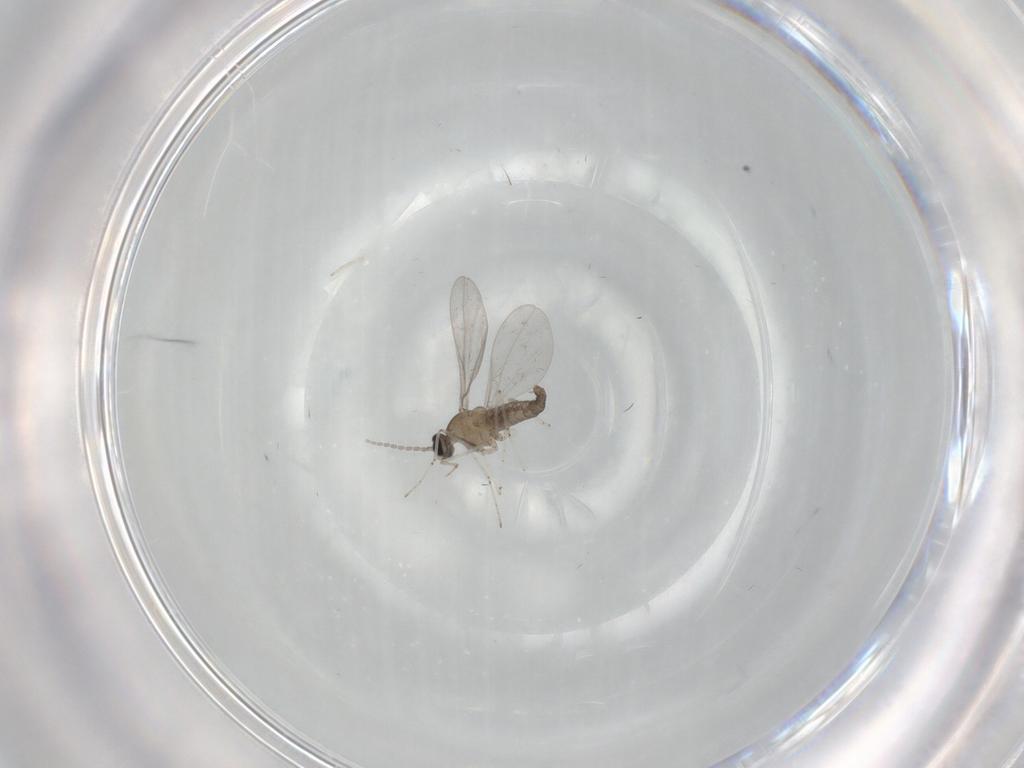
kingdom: Animalia
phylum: Arthropoda
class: Insecta
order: Diptera
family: Cecidomyiidae
